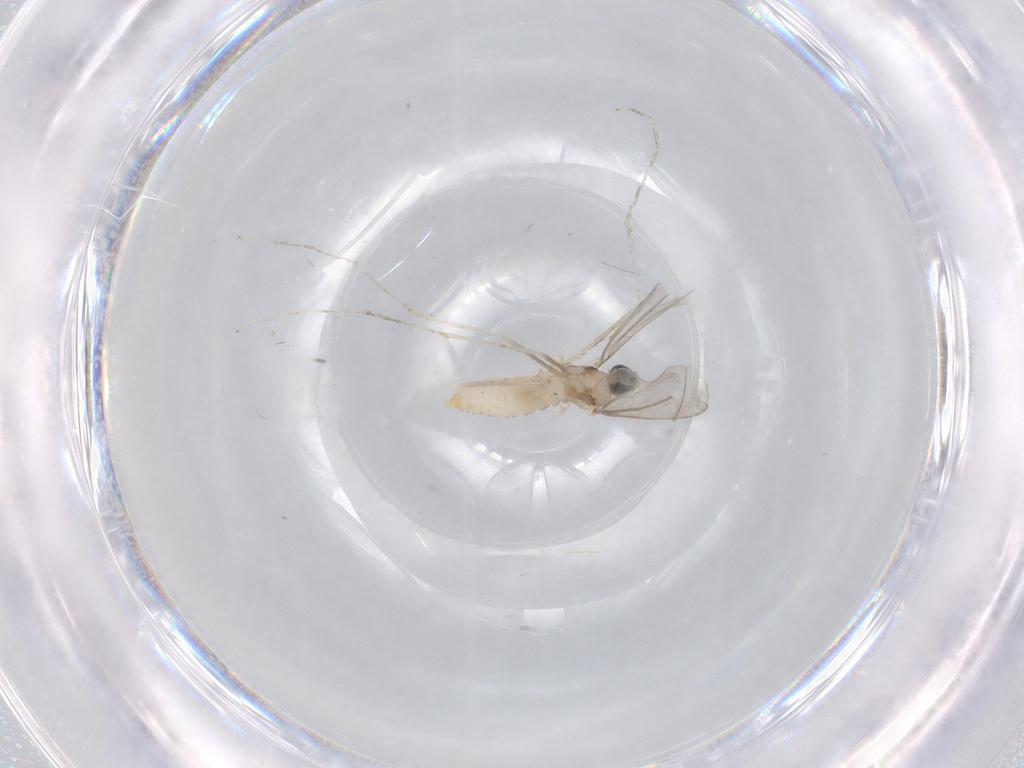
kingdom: Animalia
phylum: Arthropoda
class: Insecta
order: Diptera
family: Cecidomyiidae
